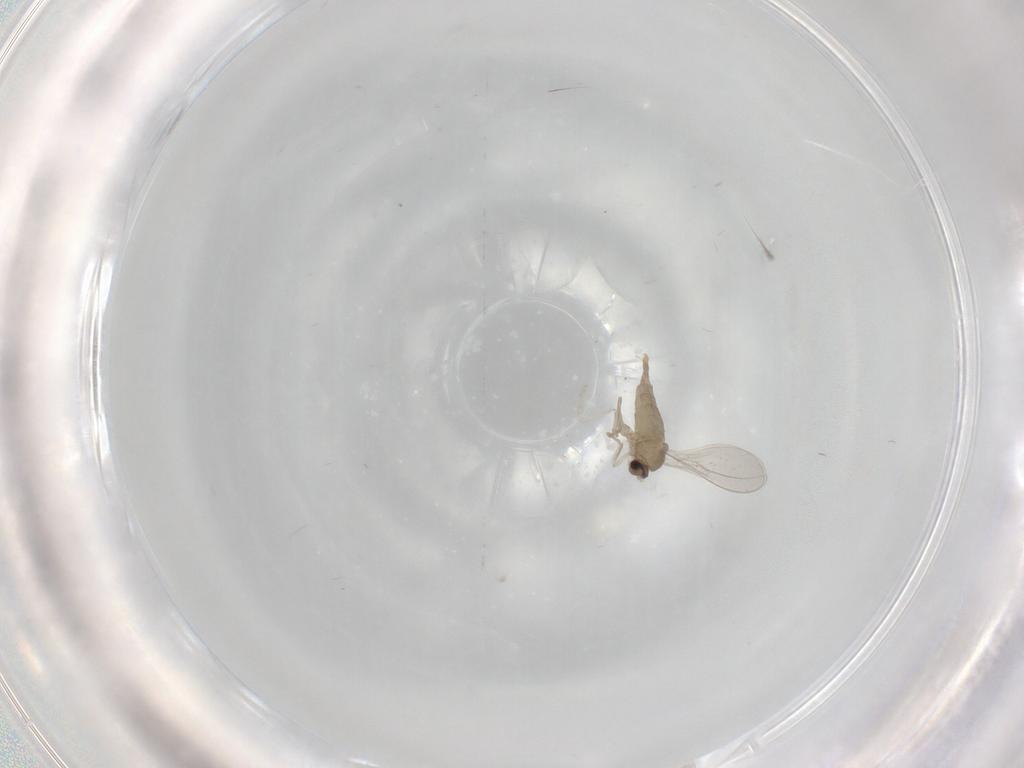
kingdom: Animalia
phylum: Arthropoda
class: Insecta
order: Diptera
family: Cecidomyiidae
